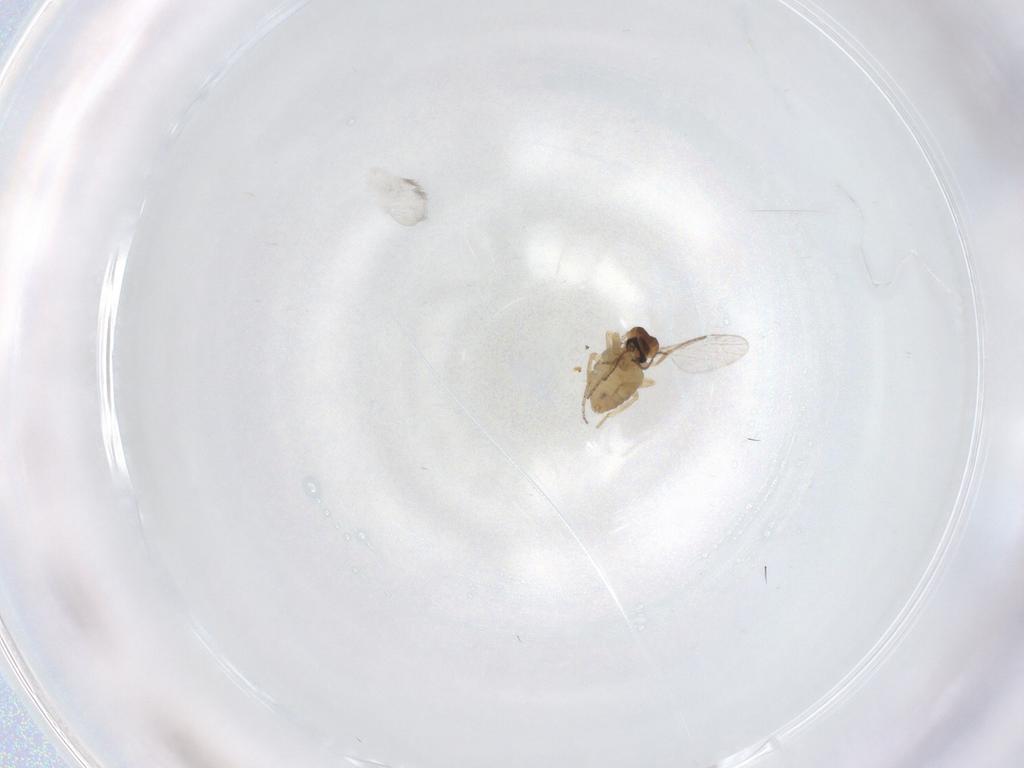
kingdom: Animalia
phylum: Arthropoda
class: Insecta
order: Diptera
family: Ceratopogonidae
